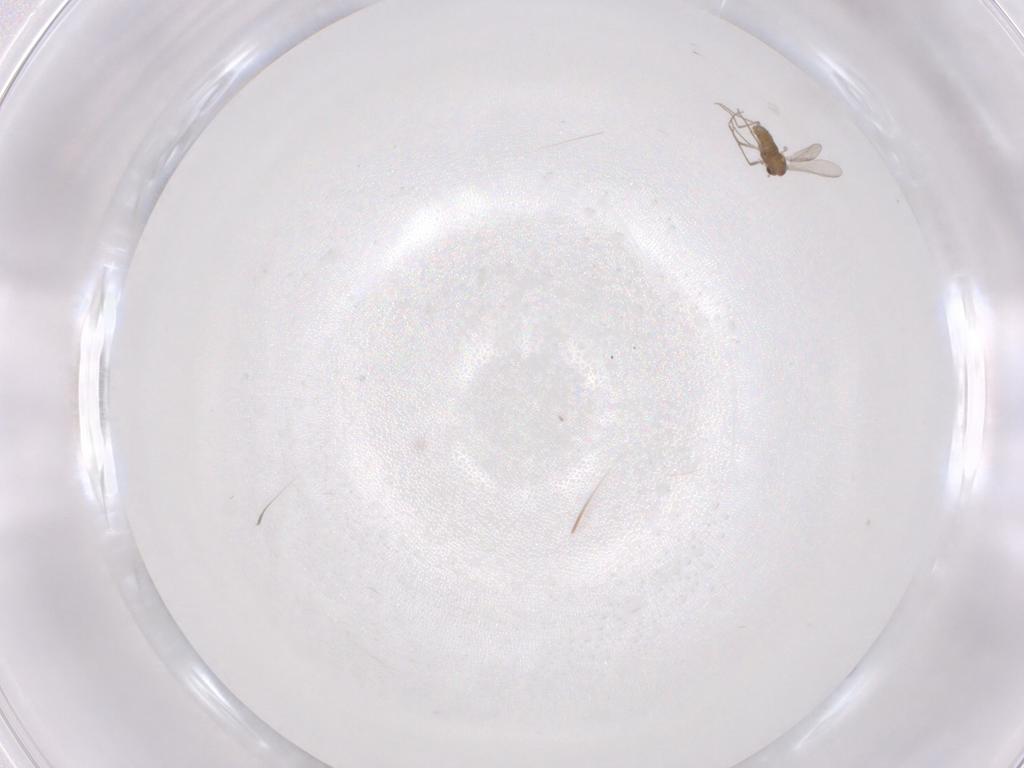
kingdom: Animalia
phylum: Arthropoda
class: Insecta
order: Diptera
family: Chironomidae
